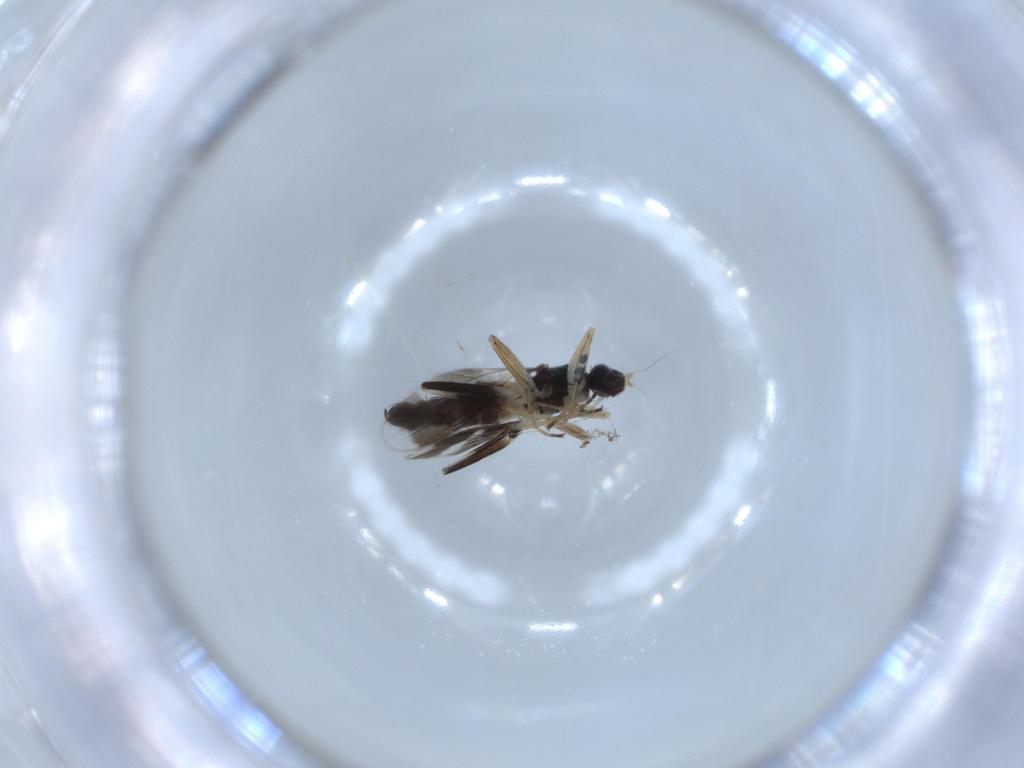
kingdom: Animalia
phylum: Arthropoda
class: Insecta
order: Diptera
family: Hybotidae
